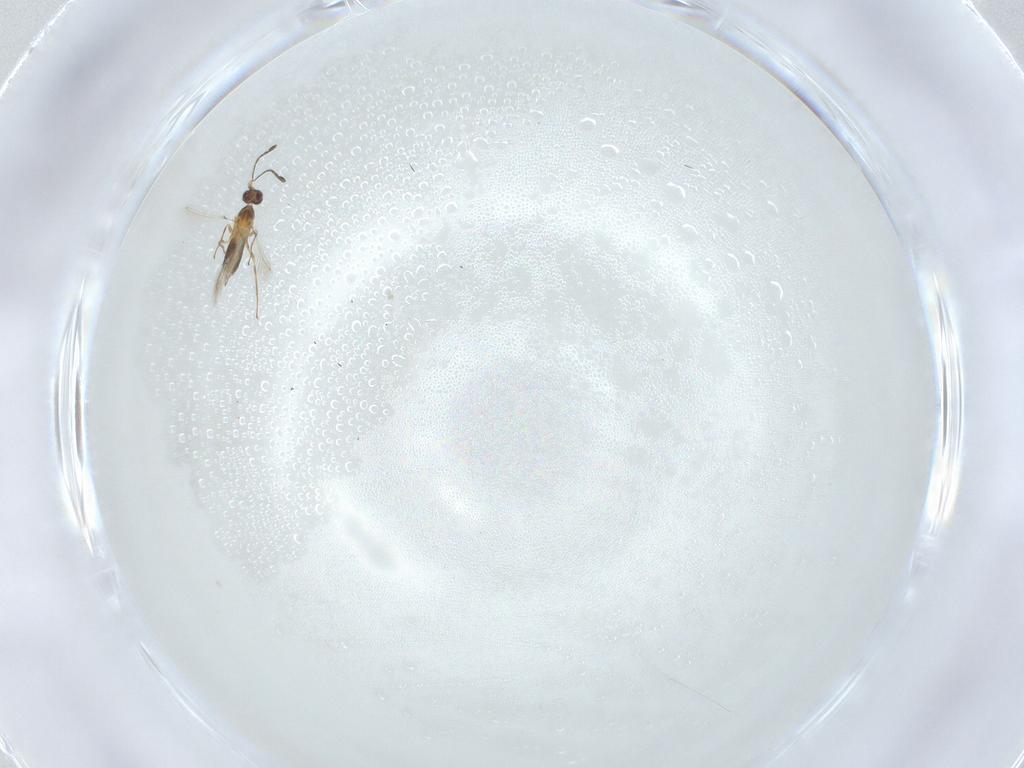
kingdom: Animalia
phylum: Arthropoda
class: Insecta
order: Hymenoptera
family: Mymaridae
